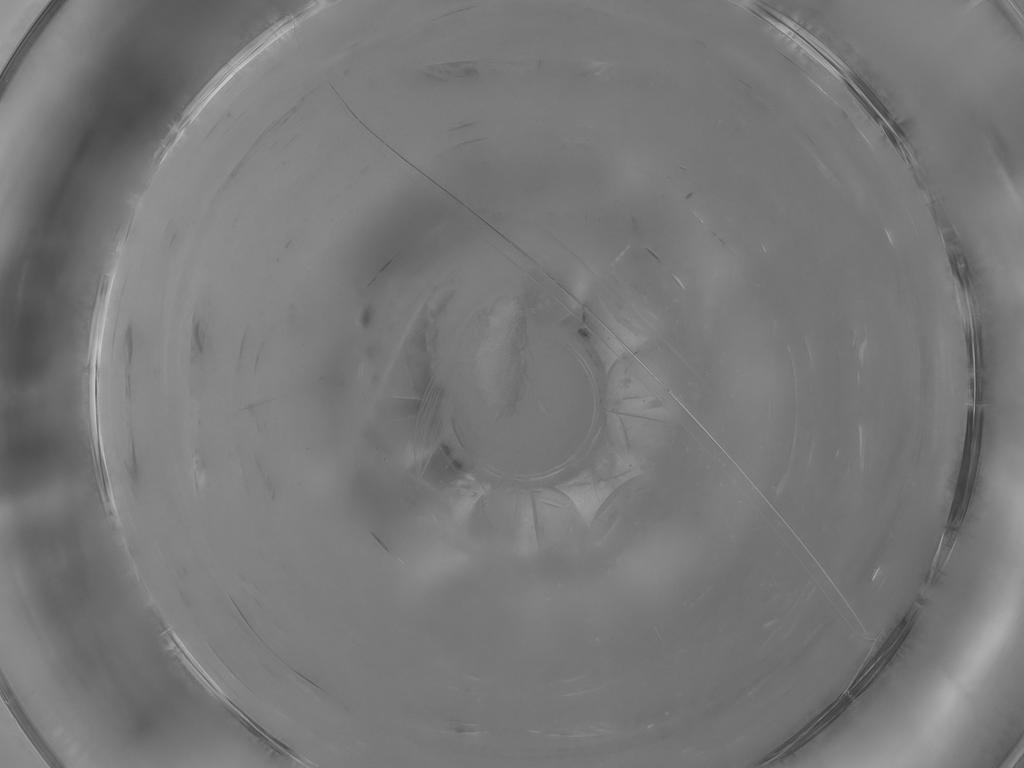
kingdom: Animalia
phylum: Arthropoda
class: Insecta
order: Diptera
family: Psychodidae
